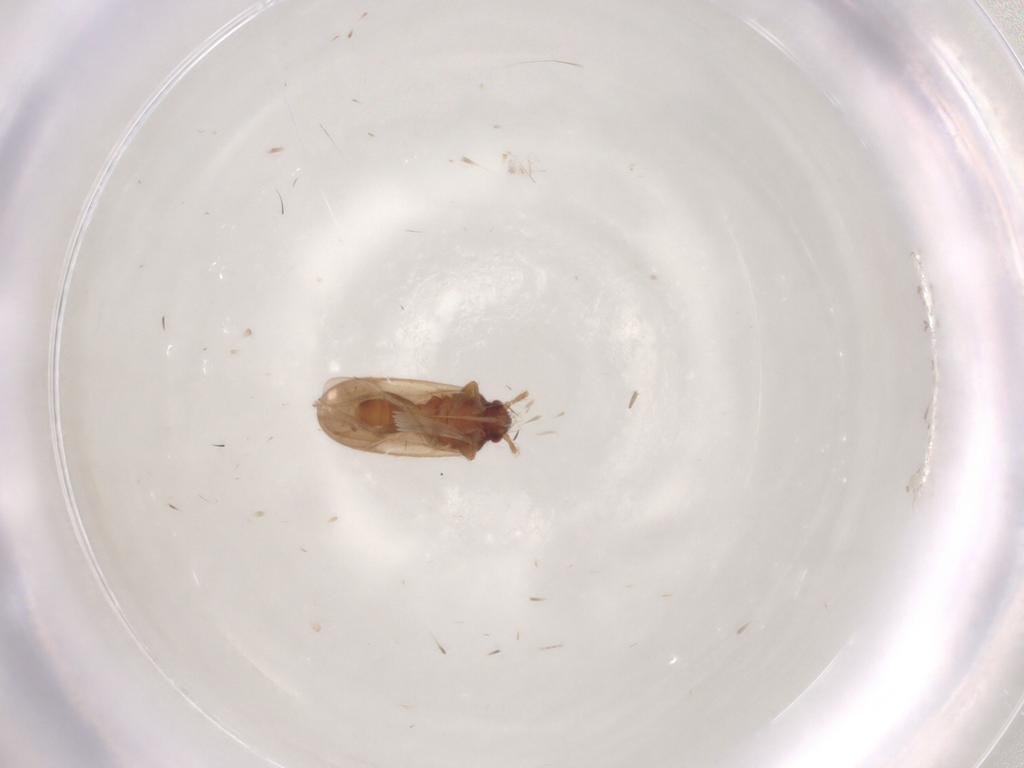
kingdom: Animalia
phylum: Arthropoda
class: Insecta
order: Hemiptera
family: Ceratocombidae
